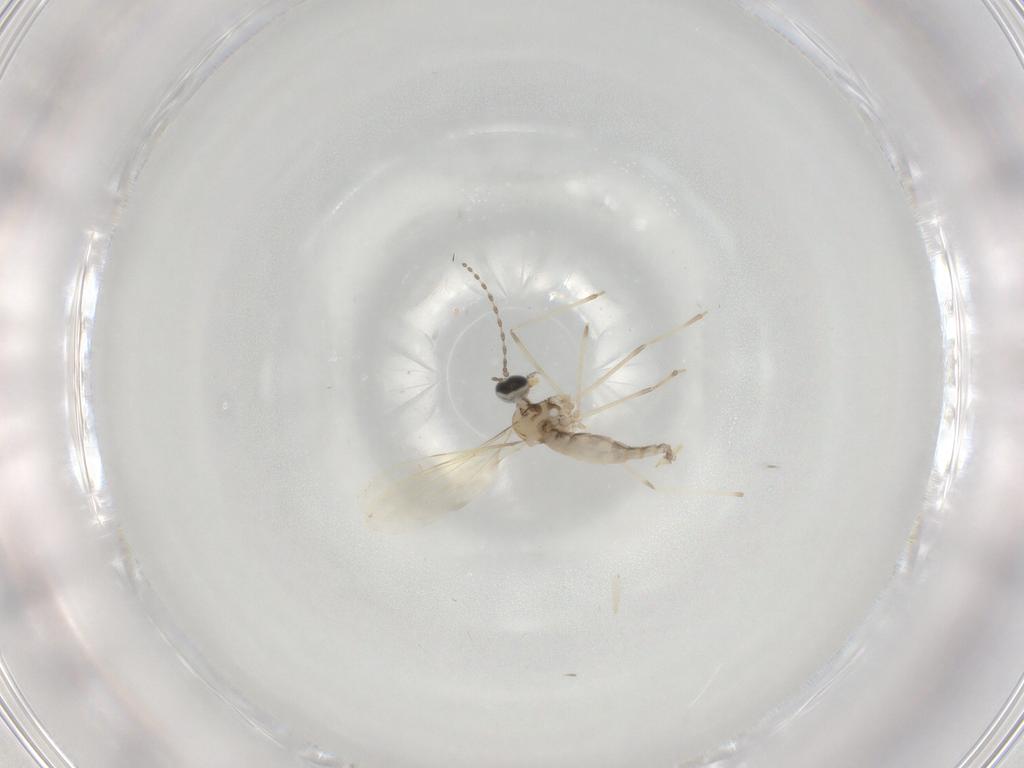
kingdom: Animalia
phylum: Arthropoda
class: Insecta
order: Diptera
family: Cecidomyiidae
